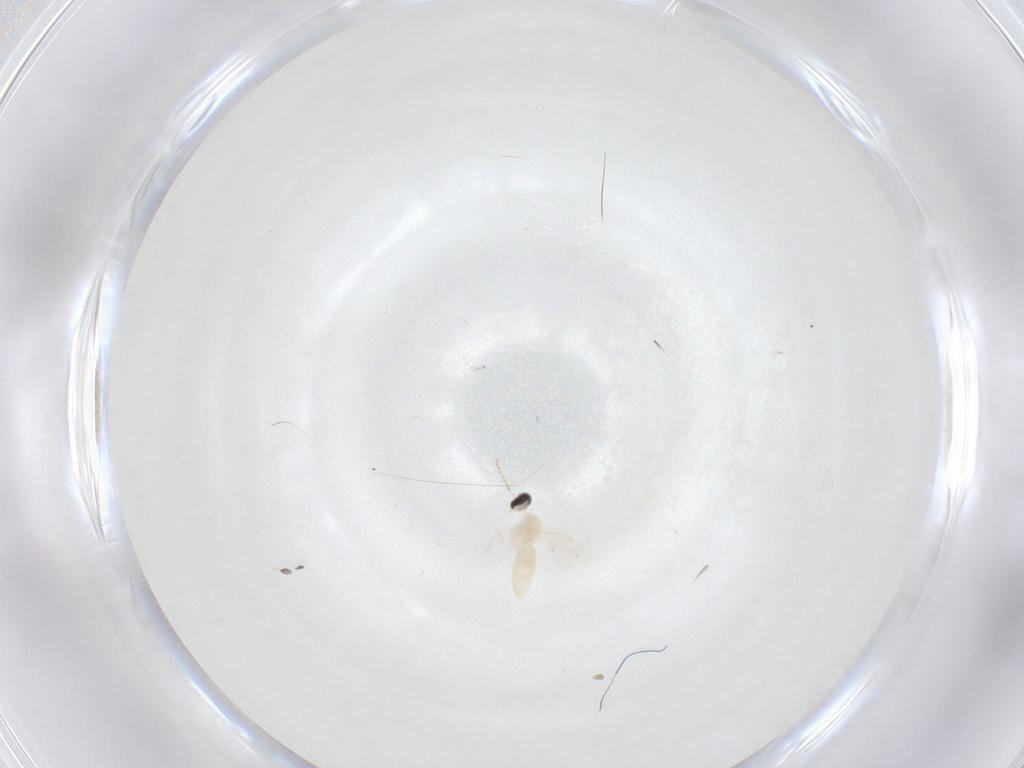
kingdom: Animalia
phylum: Arthropoda
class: Insecta
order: Diptera
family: Cecidomyiidae
